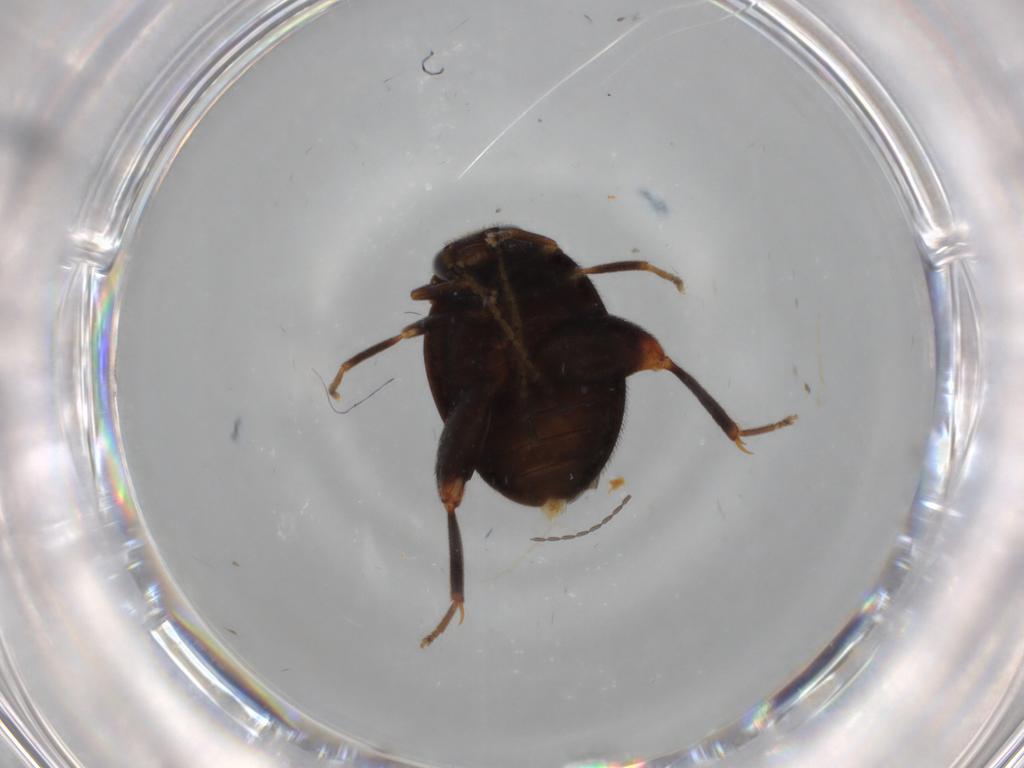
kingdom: Animalia
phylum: Arthropoda
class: Insecta
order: Coleoptera
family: Scirtidae
